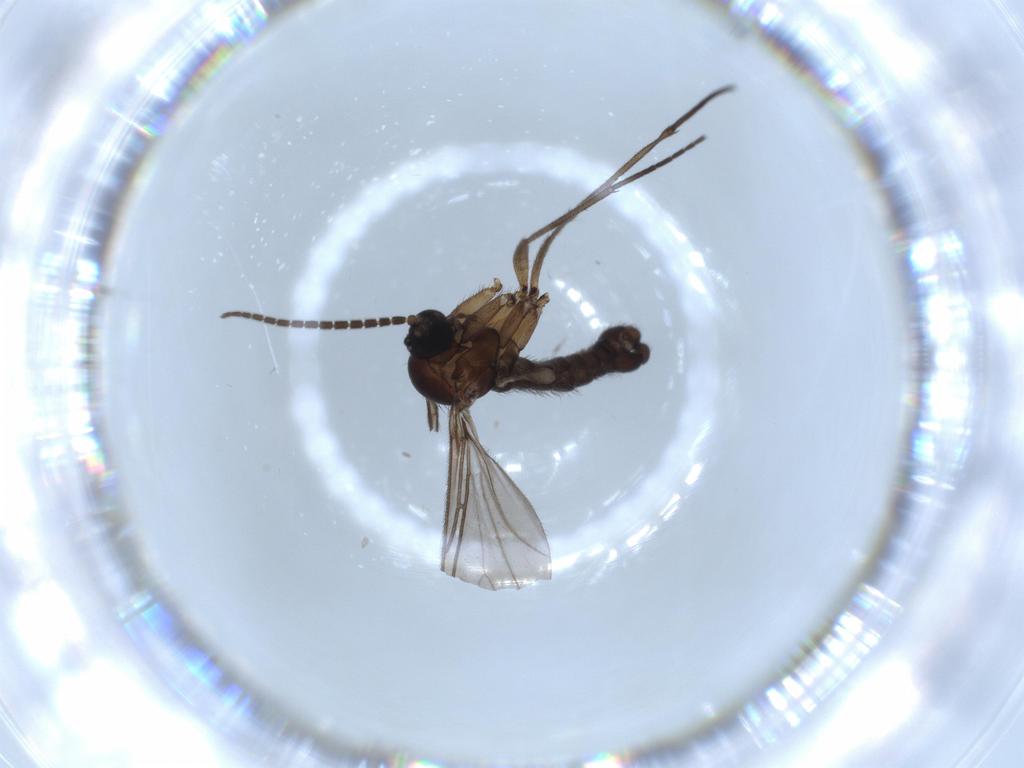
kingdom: Animalia
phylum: Arthropoda
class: Insecta
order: Diptera
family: Sciaridae
